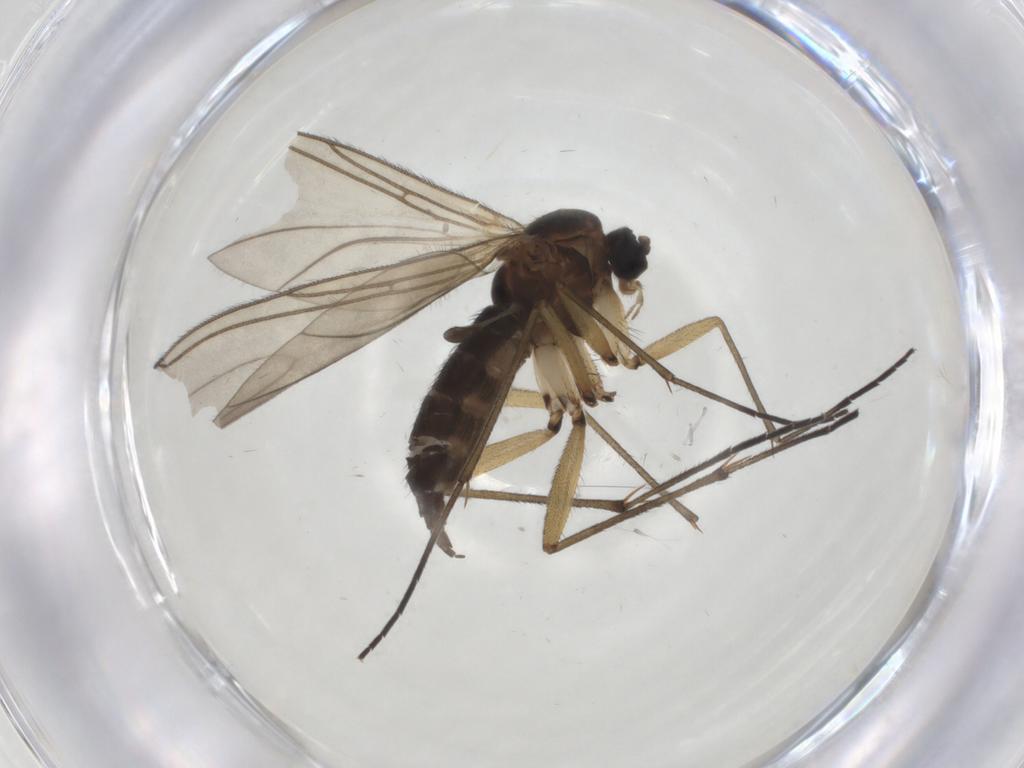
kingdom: Animalia
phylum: Arthropoda
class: Insecta
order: Diptera
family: Sciaridae
